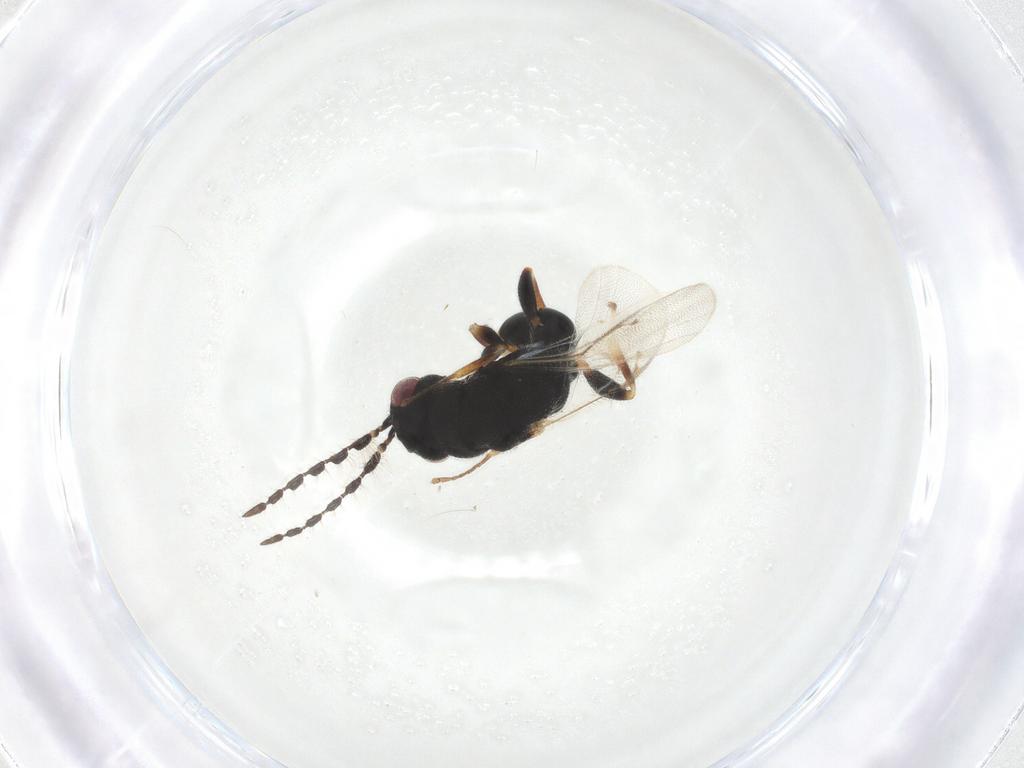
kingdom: Animalia
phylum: Arthropoda
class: Insecta
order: Hymenoptera
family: Eurytomidae
